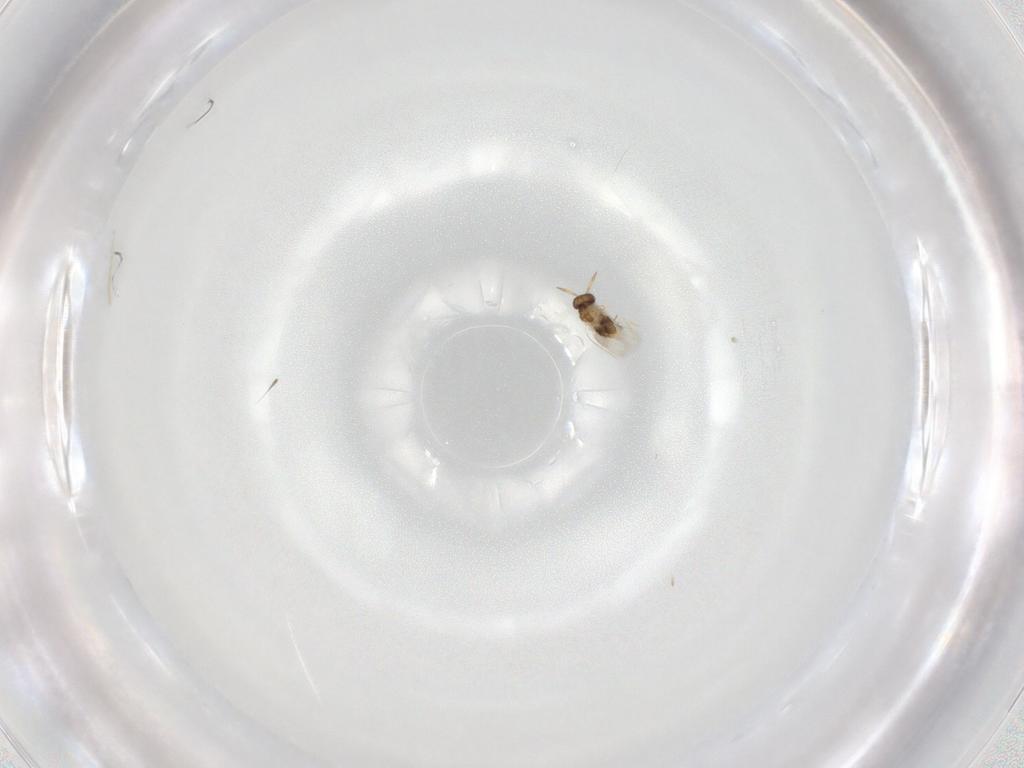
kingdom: Animalia
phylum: Arthropoda
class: Insecta
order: Hymenoptera
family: Aphelinidae
